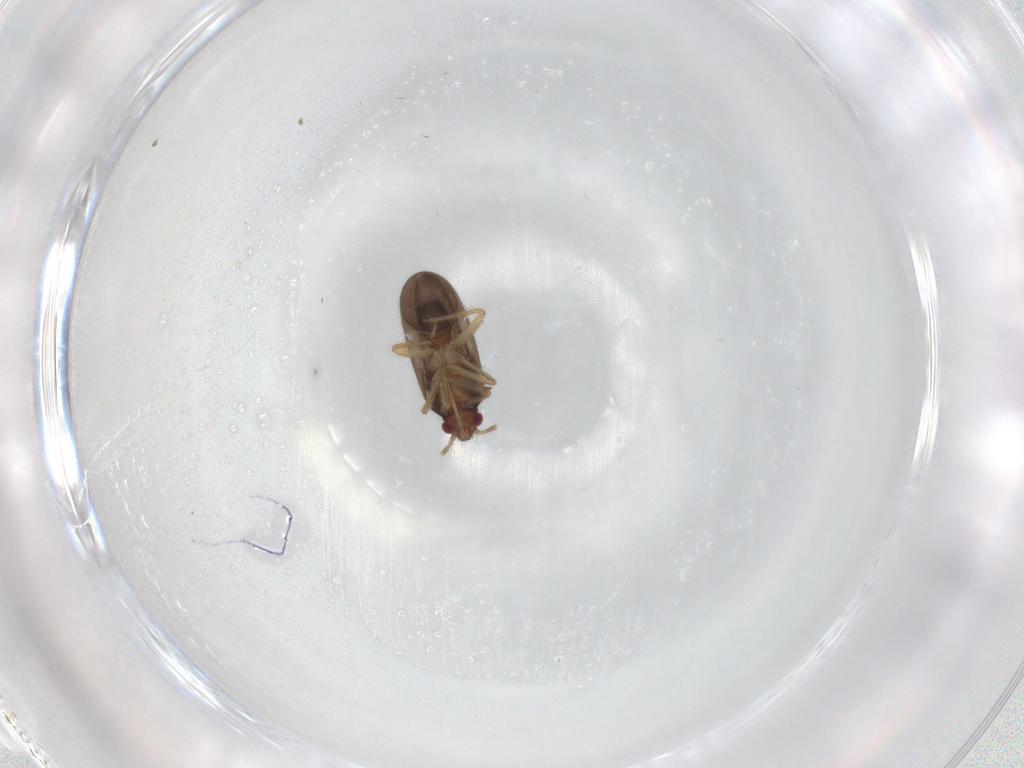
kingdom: Animalia
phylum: Arthropoda
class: Insecta
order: Hemiptera
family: Ceratocombidae
